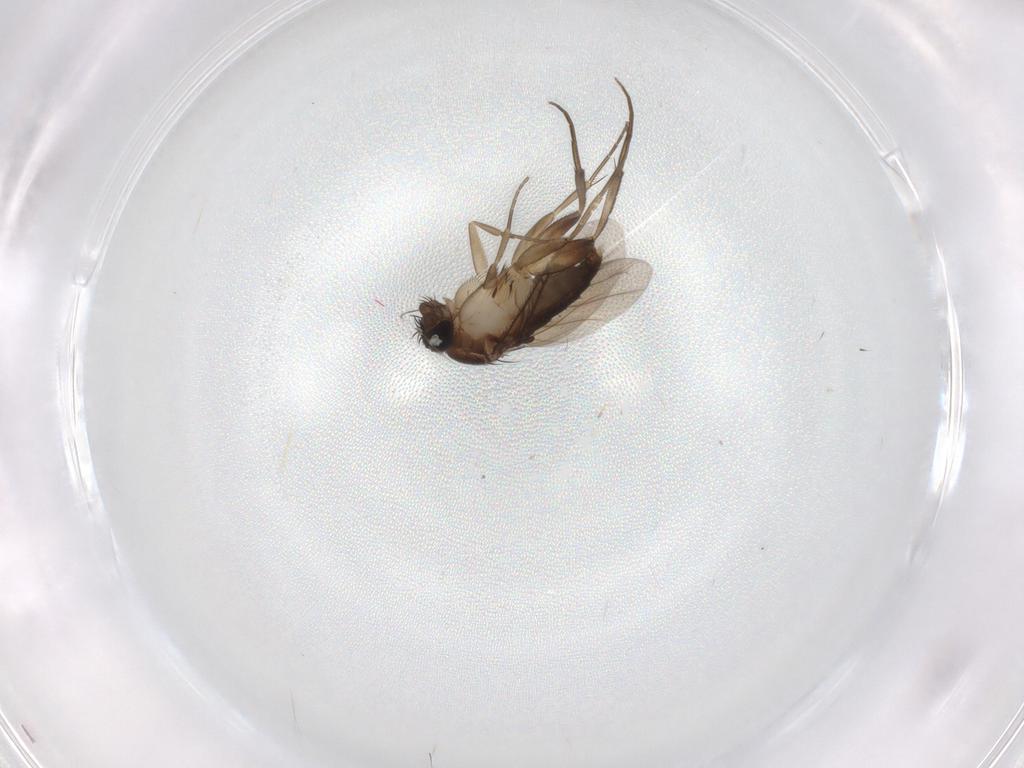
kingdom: Animalia
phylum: Arthropoda
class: Insecta
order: Diptera
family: Phoridae
